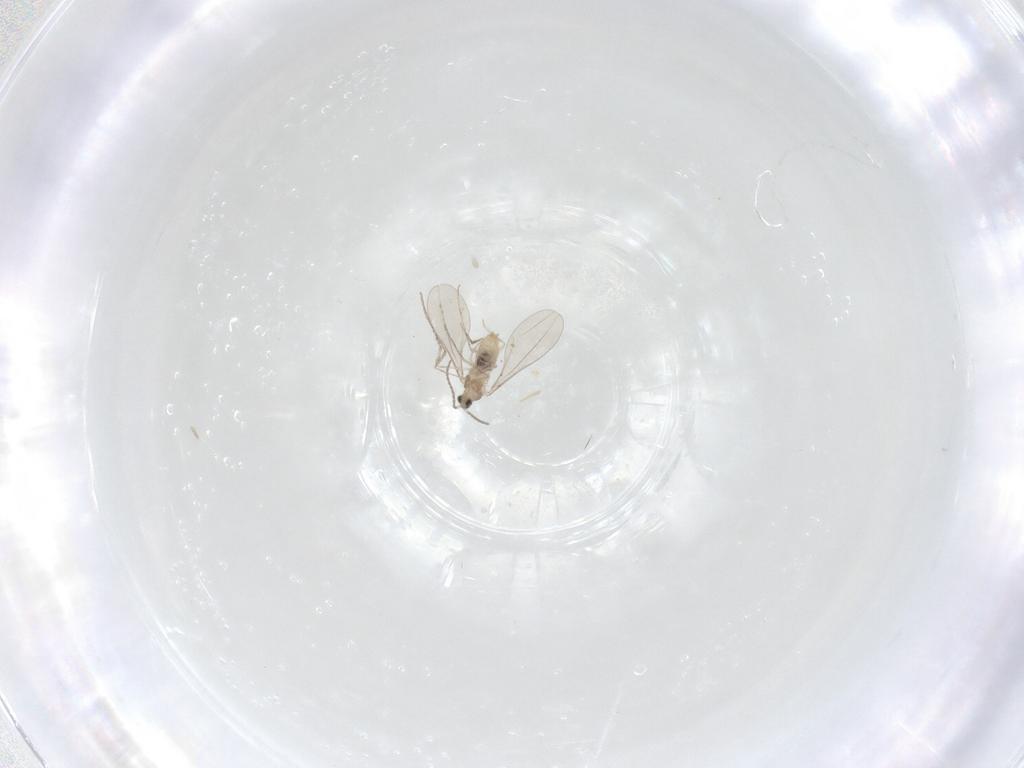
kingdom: Animalia
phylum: Arthropoda
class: Insecta
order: Diptera
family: Cecidomyiidae
